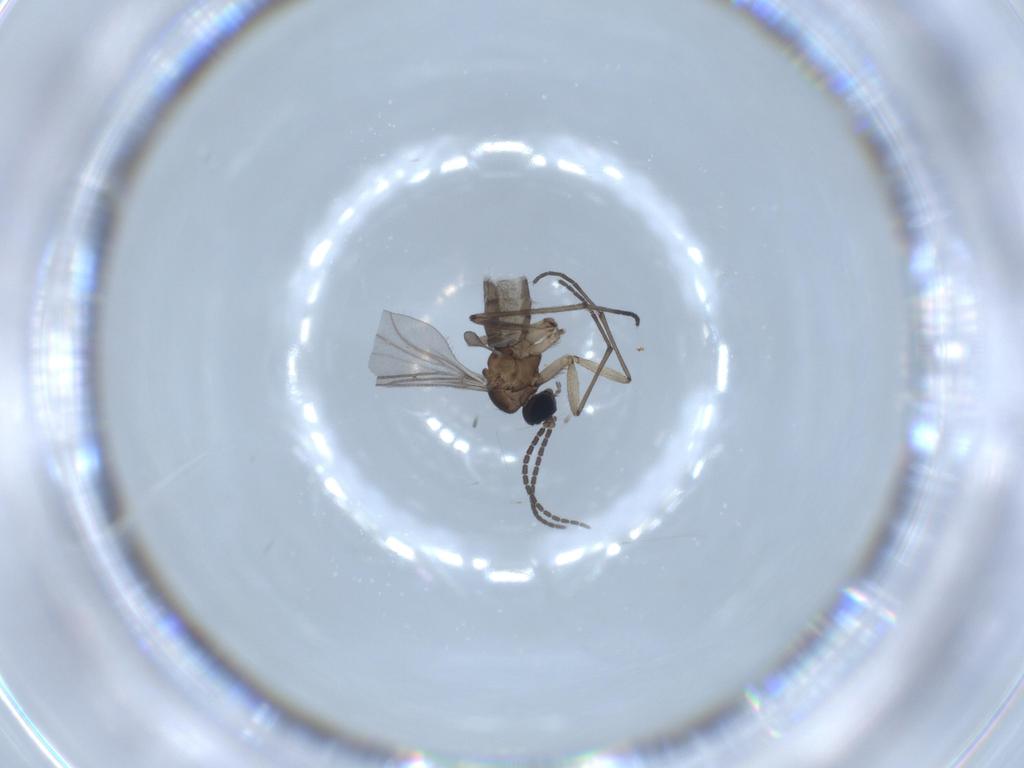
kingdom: Animalia
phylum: Arthropoda
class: Insecta
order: Diptera
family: Sciaridae
